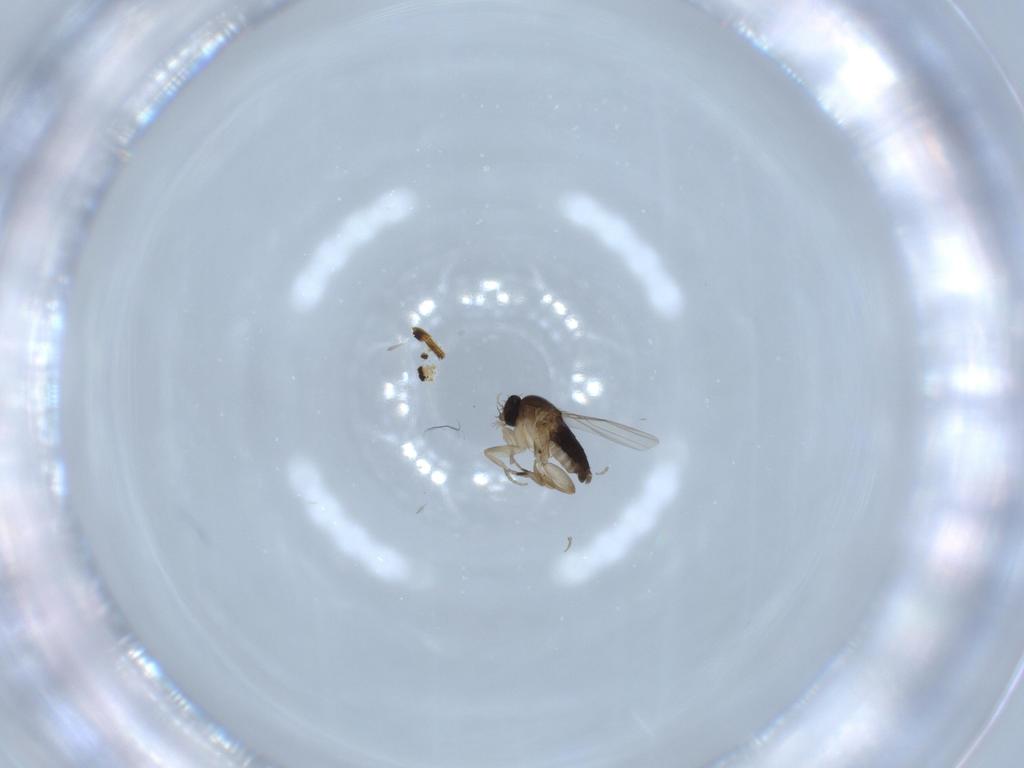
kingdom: Animalia
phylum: Arthropoda
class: Insecta
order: Diptera
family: Phoridae
